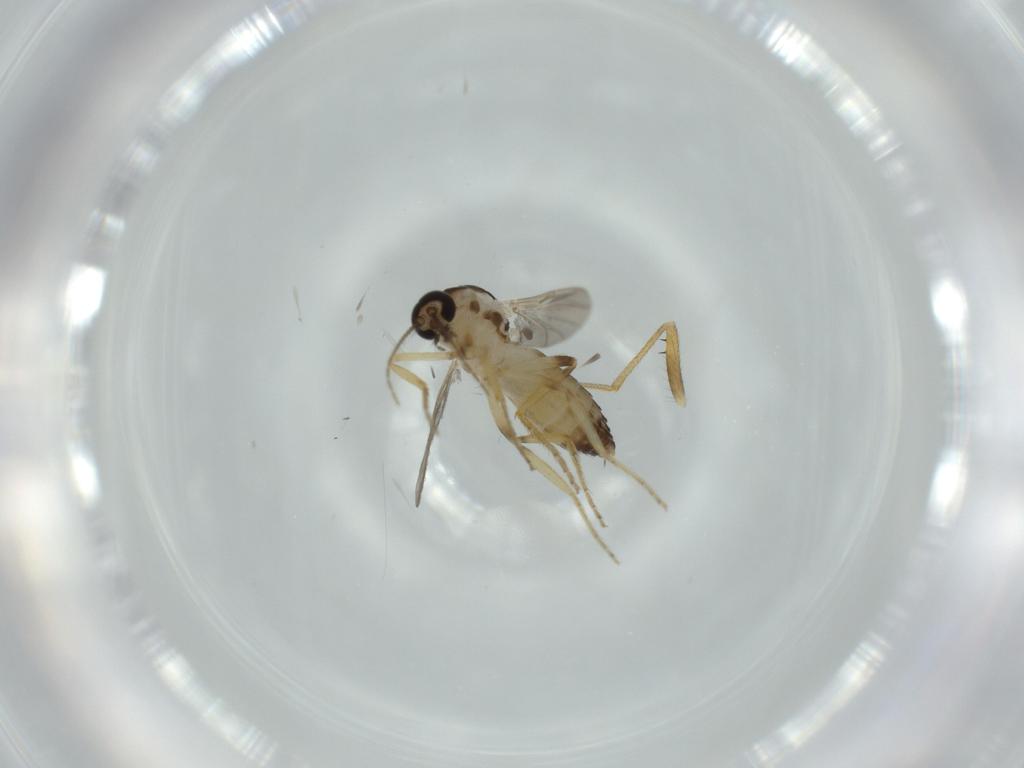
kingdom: Animalia
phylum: Arthropoda
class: Insecta
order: Diptera
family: Cecidomyiidae
